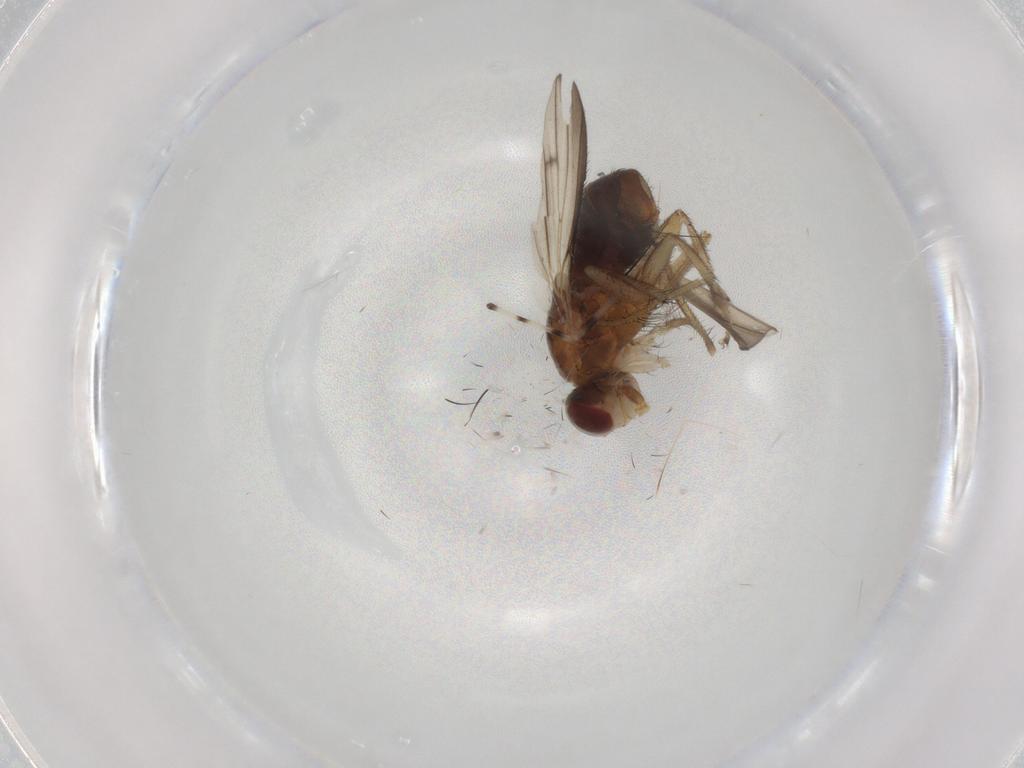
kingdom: Animalia
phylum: Arthropoda
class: Insecta
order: Diptera
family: Heleomyzidae
